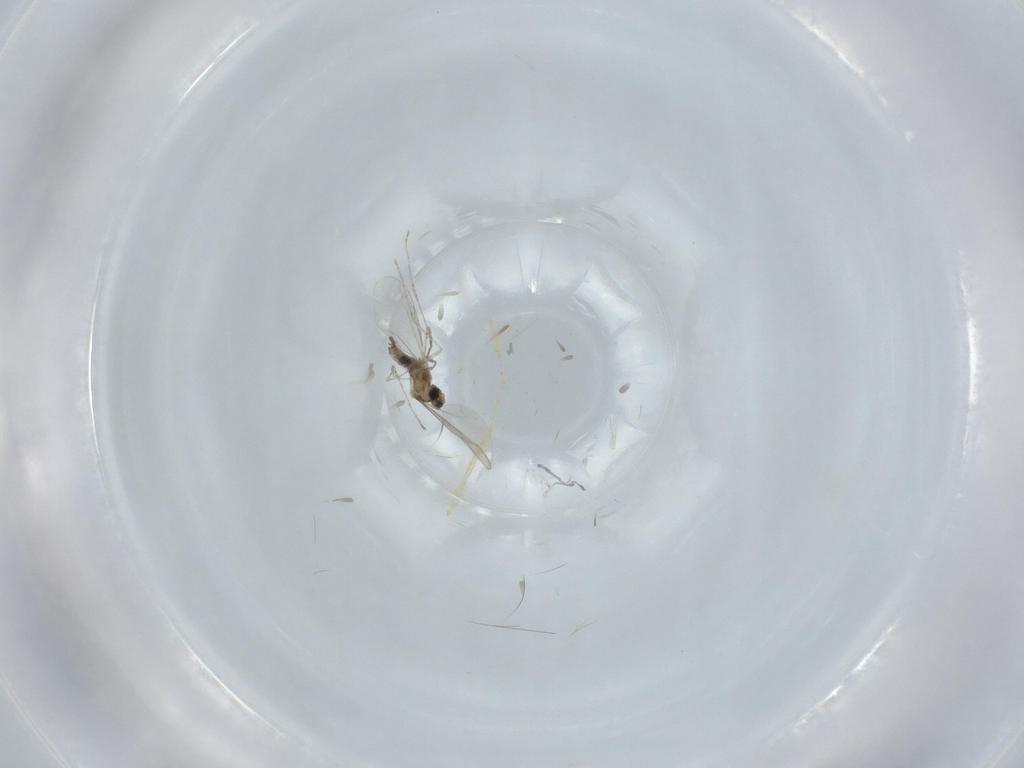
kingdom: Animalia
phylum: Arthropoda
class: Insecta
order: Diptera
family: Cecidomyiidae
